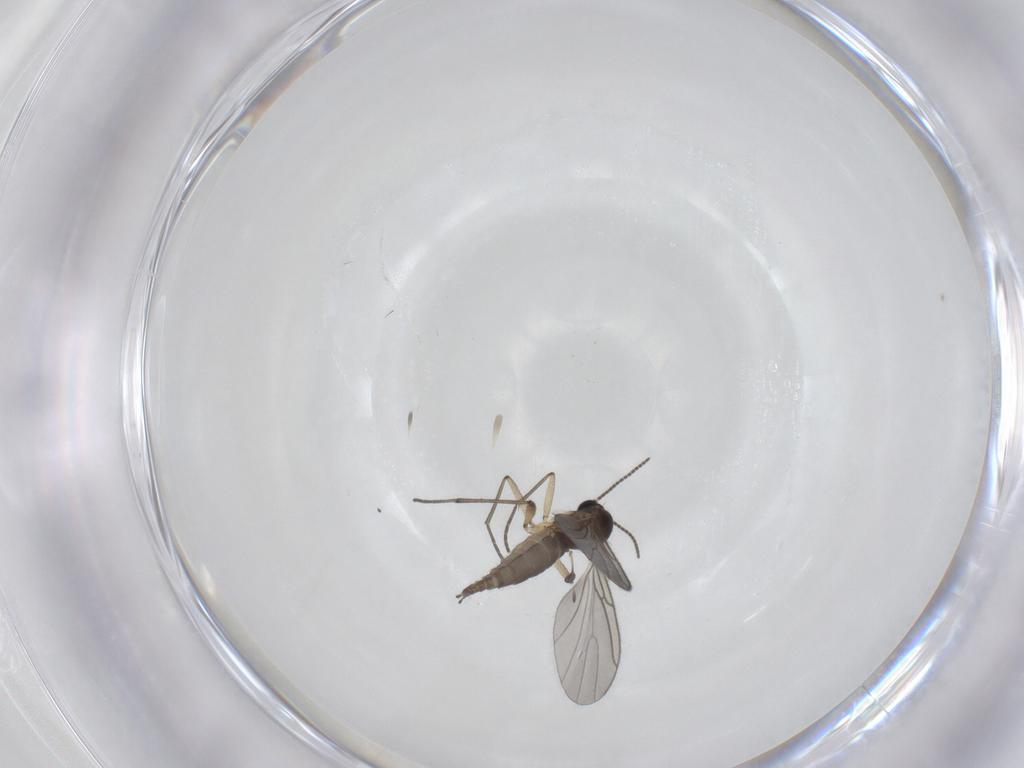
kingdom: Animalia
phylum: Arthropoda
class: Insecta
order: Diptera
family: Sciaridae
